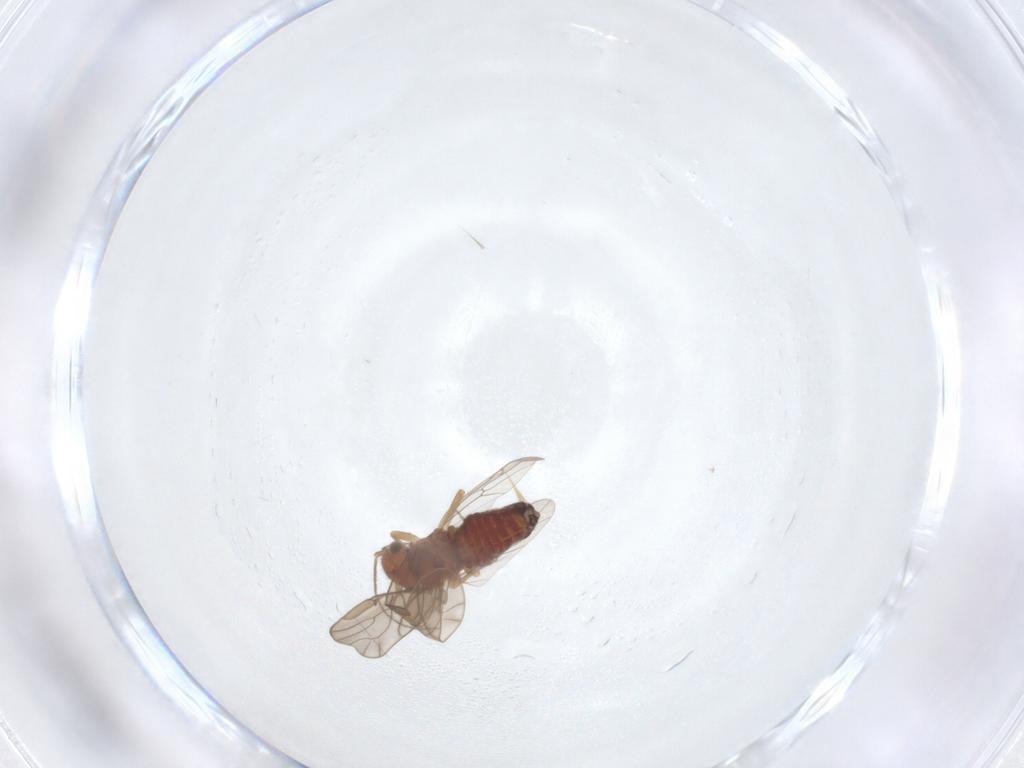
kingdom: Animalia
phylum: Arthropoda
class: Insecta
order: Psocodea
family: Ectopsocidae
